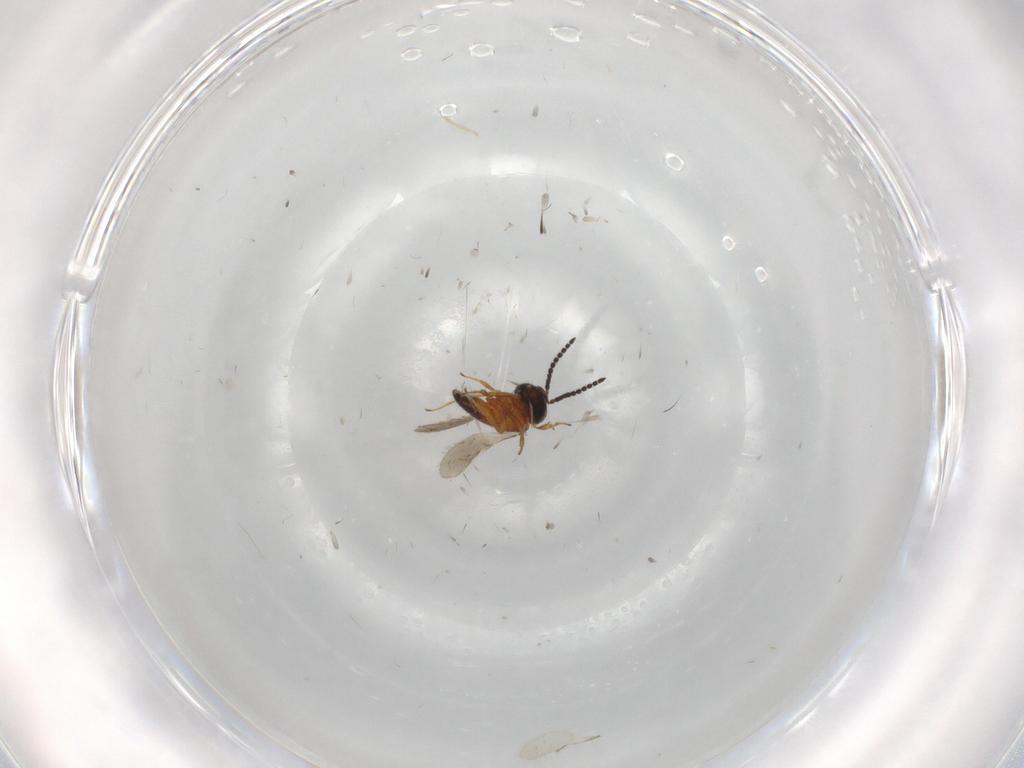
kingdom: Animalia
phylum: Arthropoda
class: Insecta
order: Hymenoptera
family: Scelionidae
